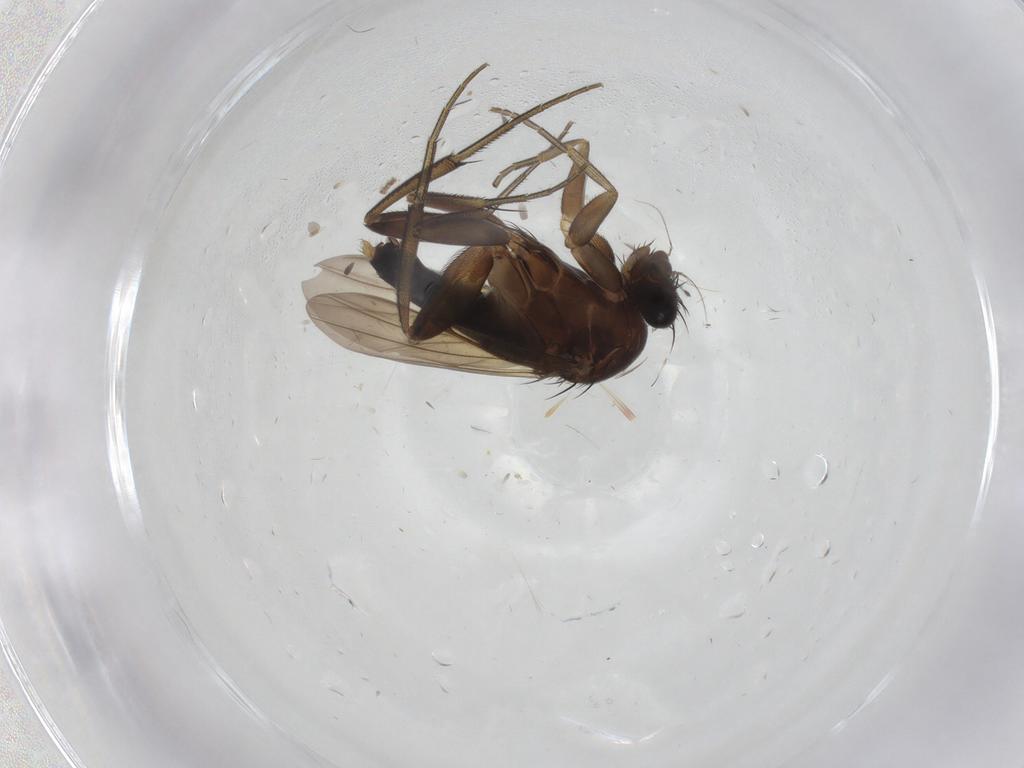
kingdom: Animalia
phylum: Arthropoda
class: Insecta
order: Diptera
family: Phoridae
